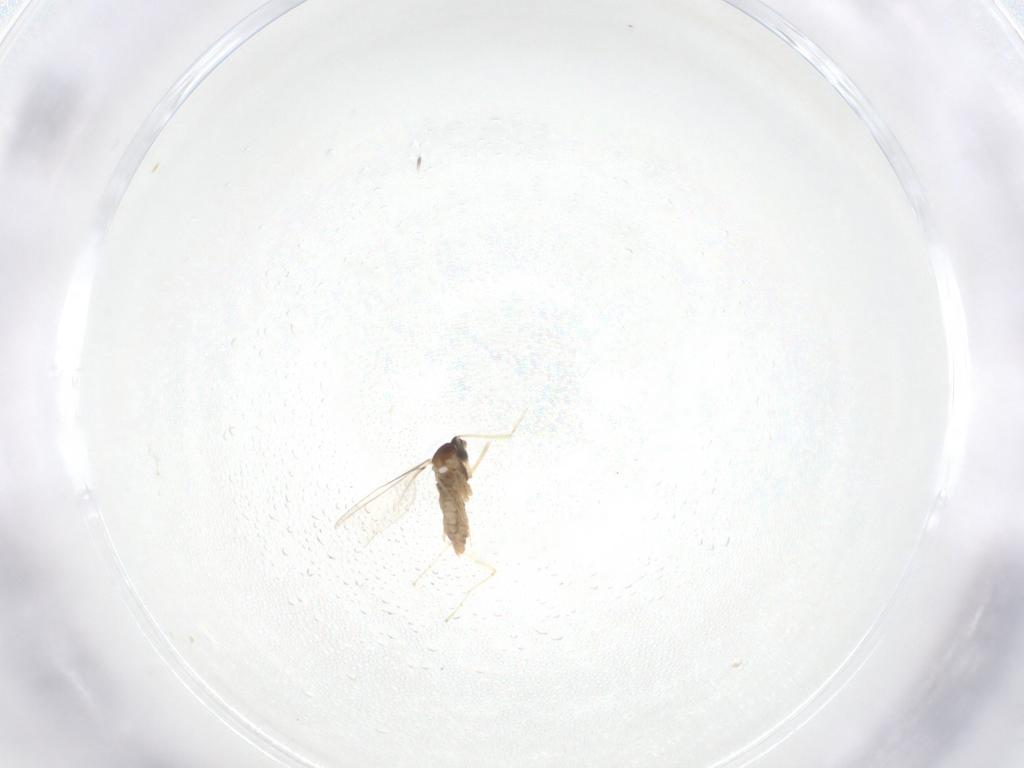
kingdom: Animalia
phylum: Arthropoda
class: Insecta
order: Diptera
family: Cecidomyiidae
